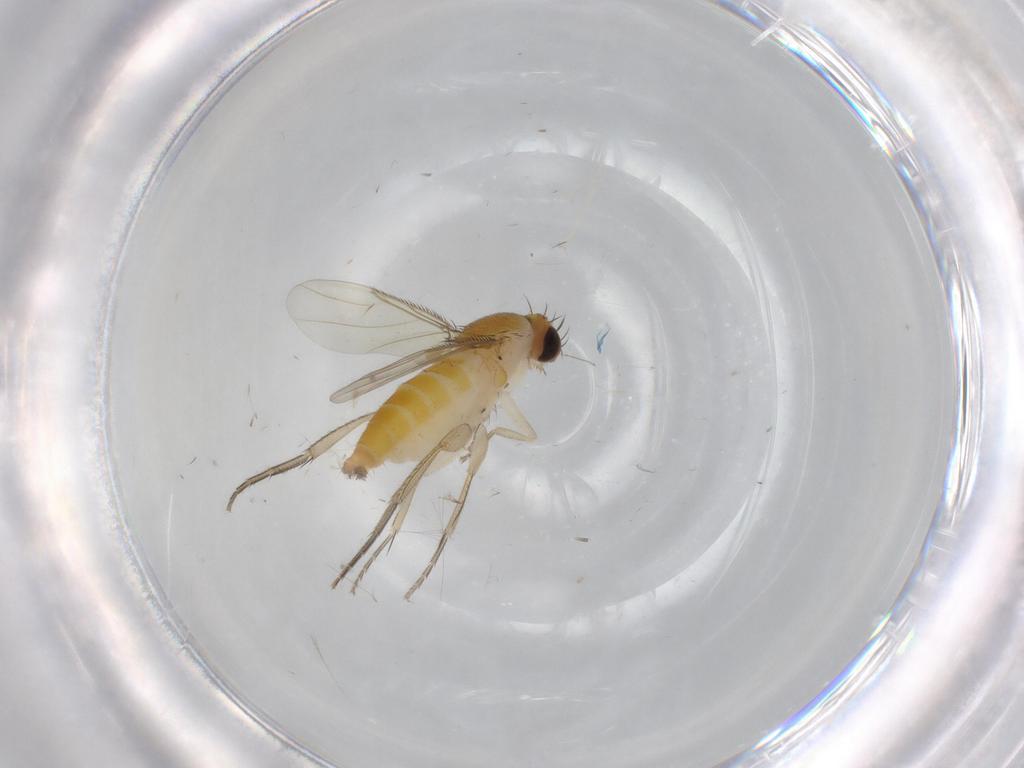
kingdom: Animalia
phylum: Arthropoda
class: Insecta
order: Diptera
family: Phoridae
